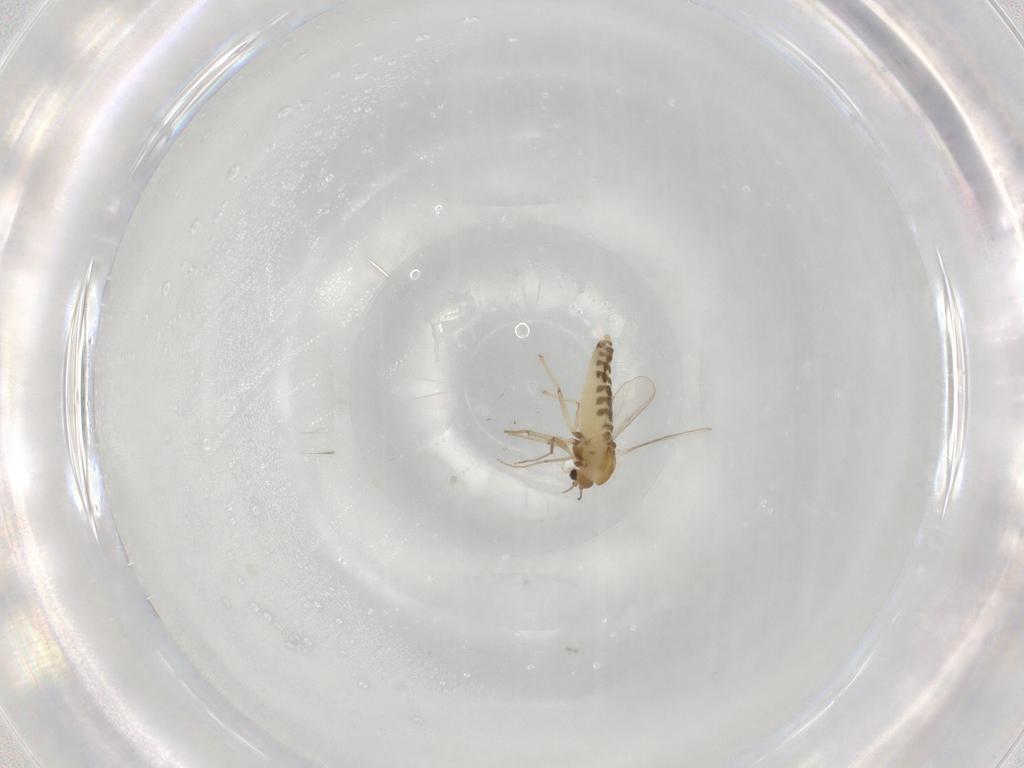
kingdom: Animalia
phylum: Arthropoda
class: Insecta
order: Diptera
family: Chironomidae
